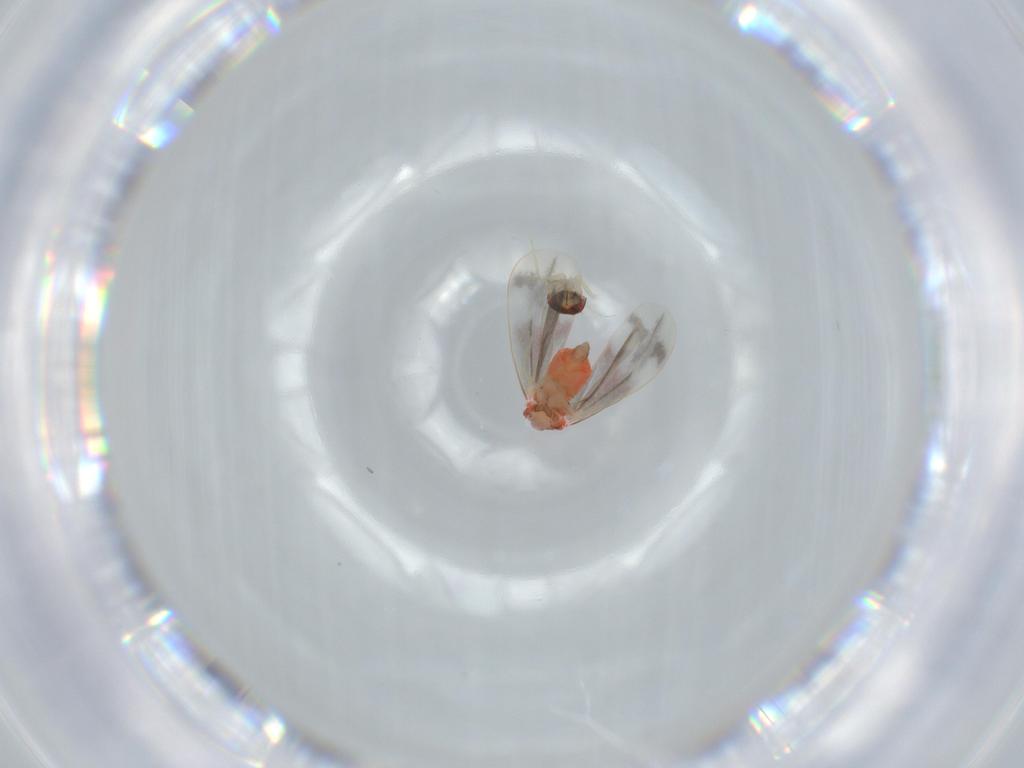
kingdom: Animalia
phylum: Arthropoda
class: Insecta
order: Hemiptera
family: Aleyrodidae
